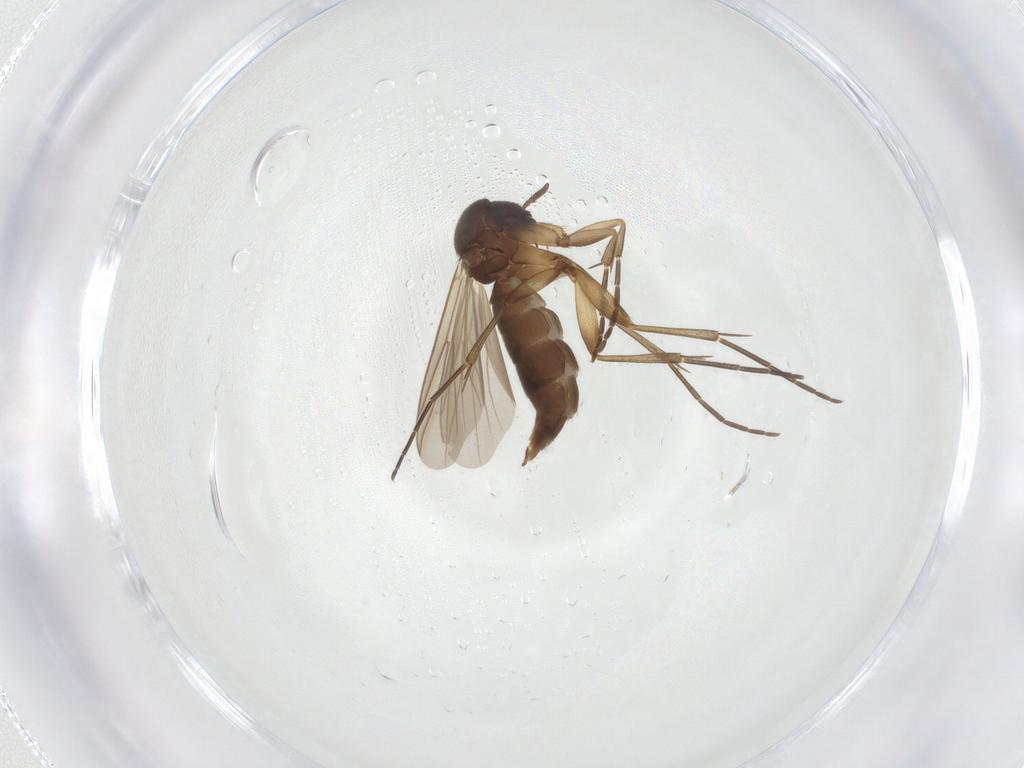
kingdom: Animalia
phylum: Arthropoda
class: Insecta
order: Diptera
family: Mycetophilidae
